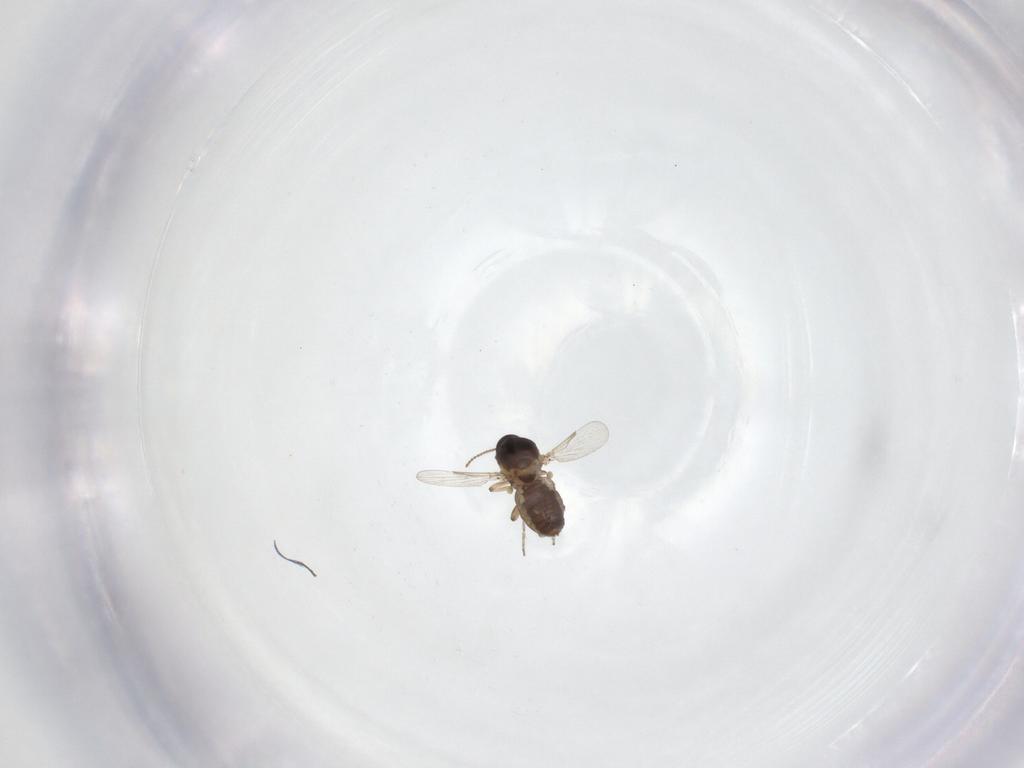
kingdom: Animalia
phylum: Arthropoda
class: Insecta
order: Diptera
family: Ceratopogonidae
